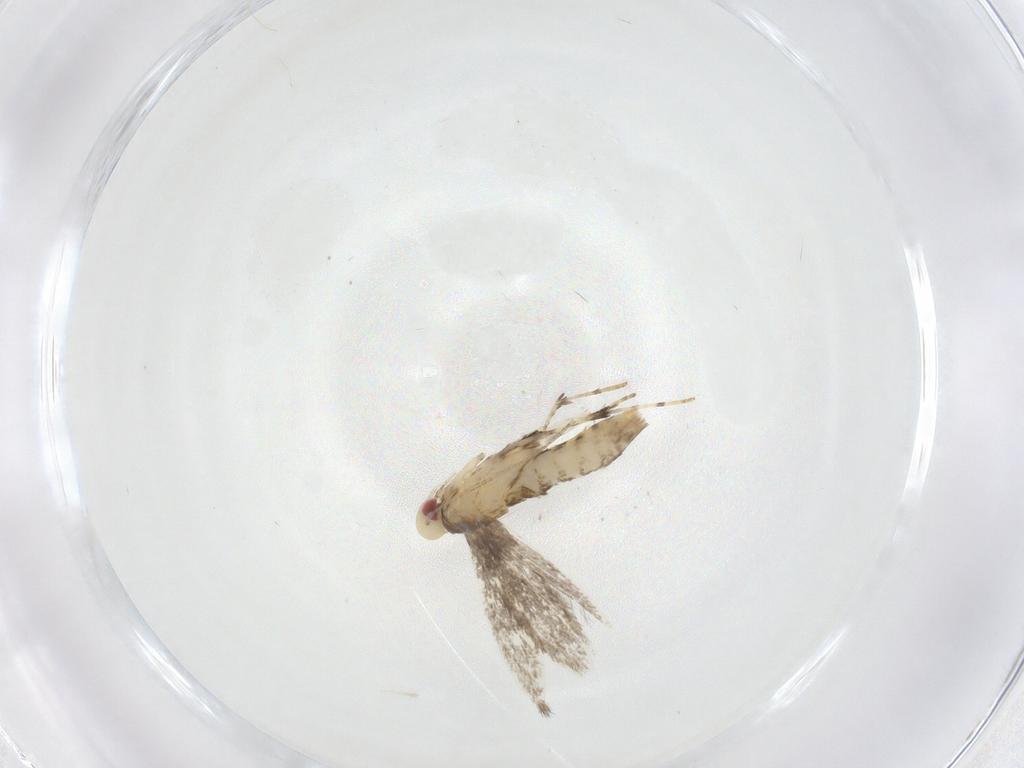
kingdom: Animalia
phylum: Arthropoda
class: Insecta
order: Lepidoptera
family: Gracillariidae
